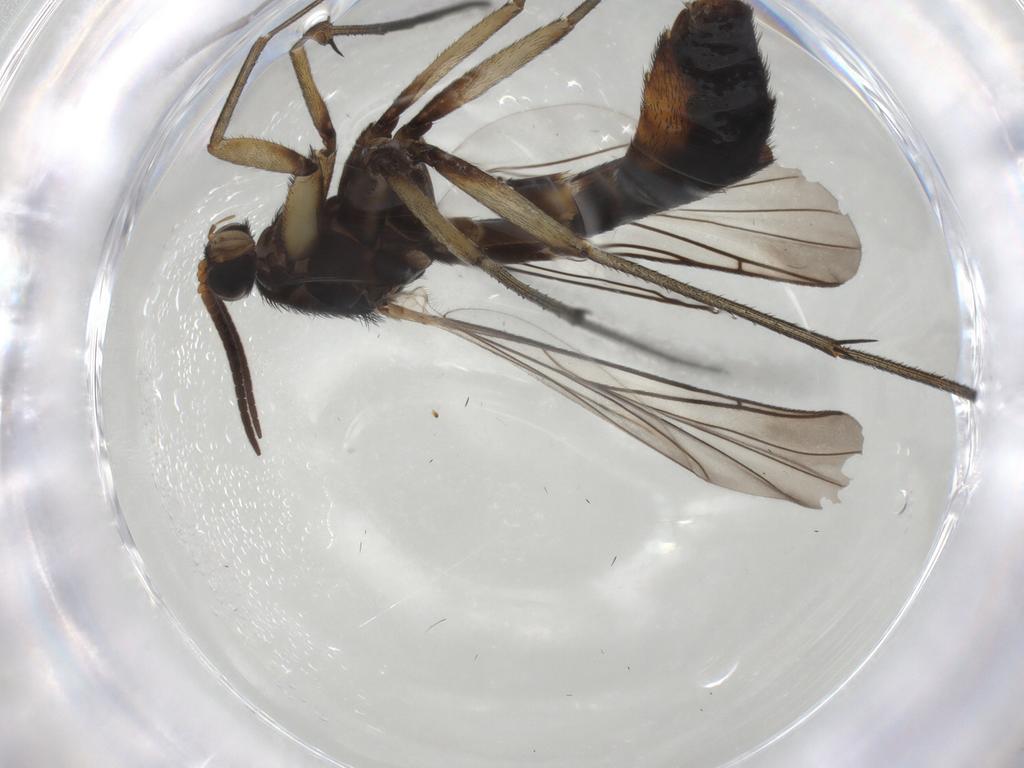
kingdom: Animalia
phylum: Arthropoda
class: Insecta
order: Diptera
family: Keroplatidae
